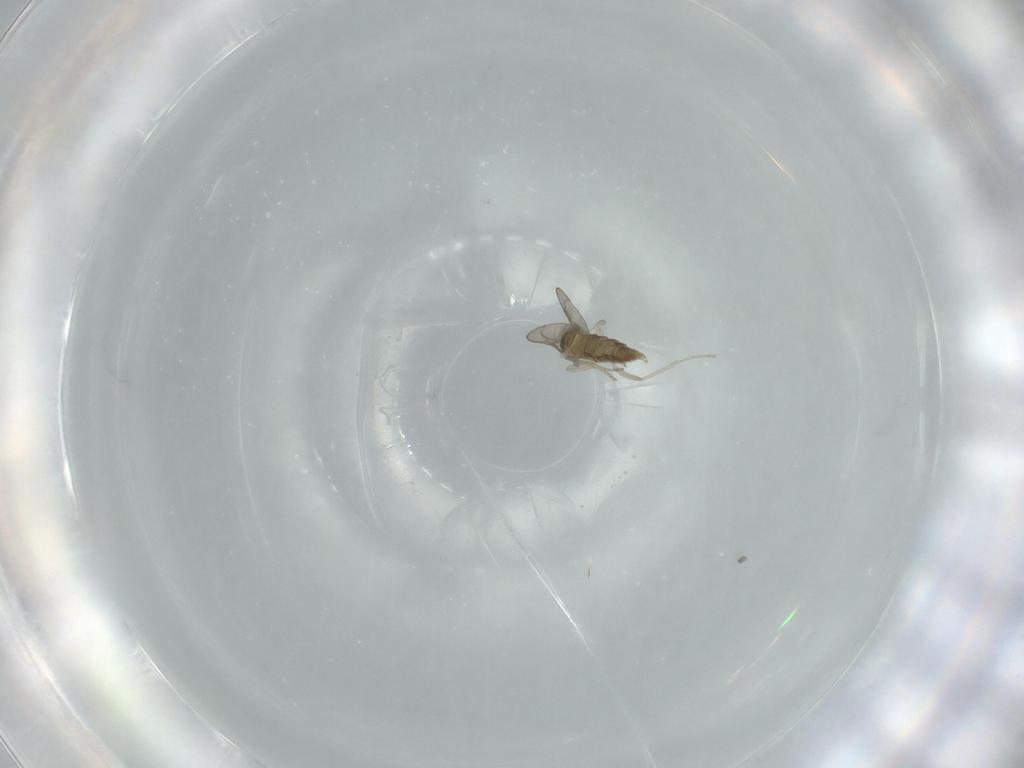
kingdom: Animalia
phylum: Arthropoda
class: Insecta
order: Diptera
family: Cecidomyiidae
